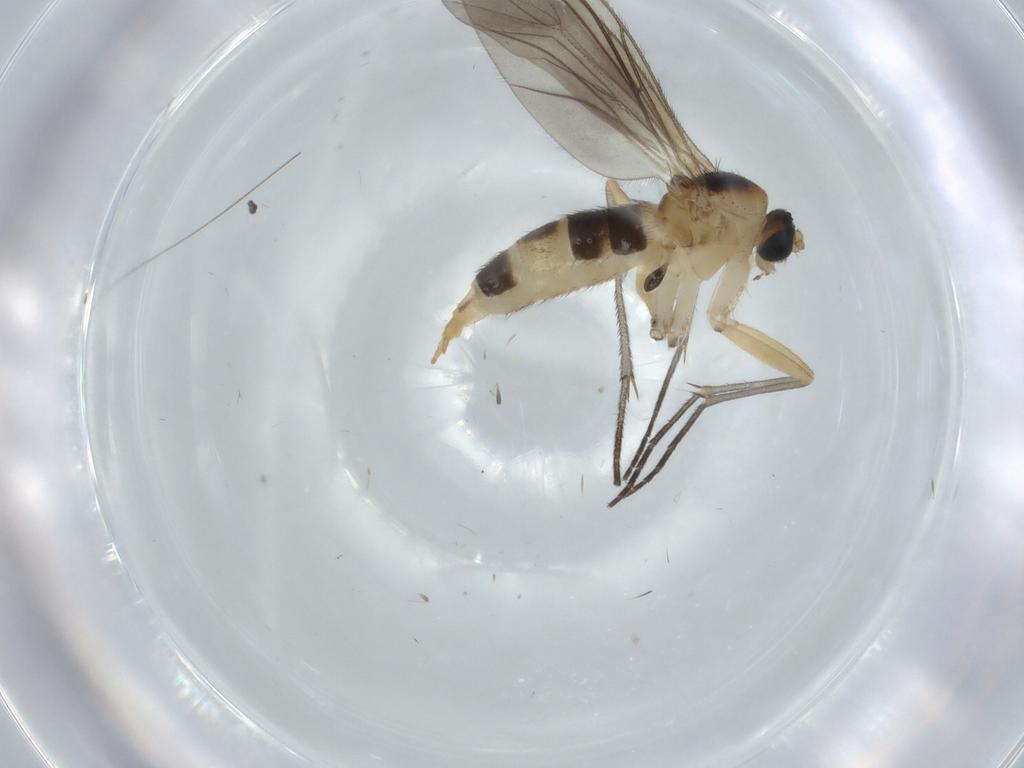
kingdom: Animalia
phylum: Arthropoda
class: Insecta
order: Diptera
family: Sciaridae
